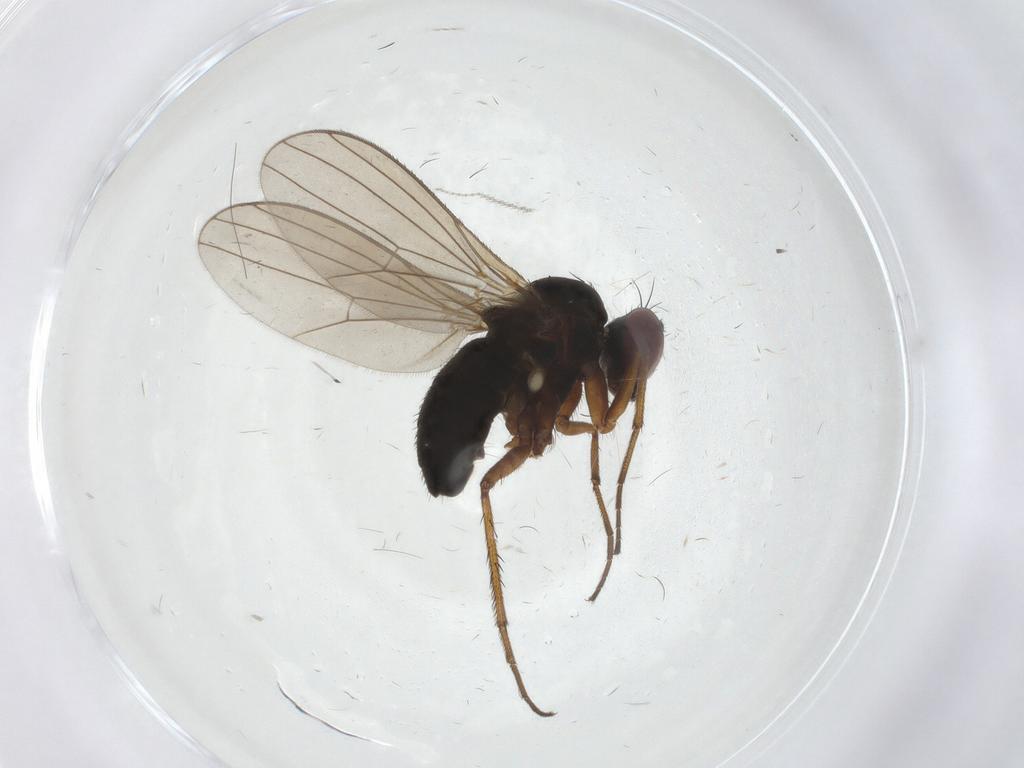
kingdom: Animalia
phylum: Arthropoda
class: Insecta
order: Diptera
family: Dolichopodidae
